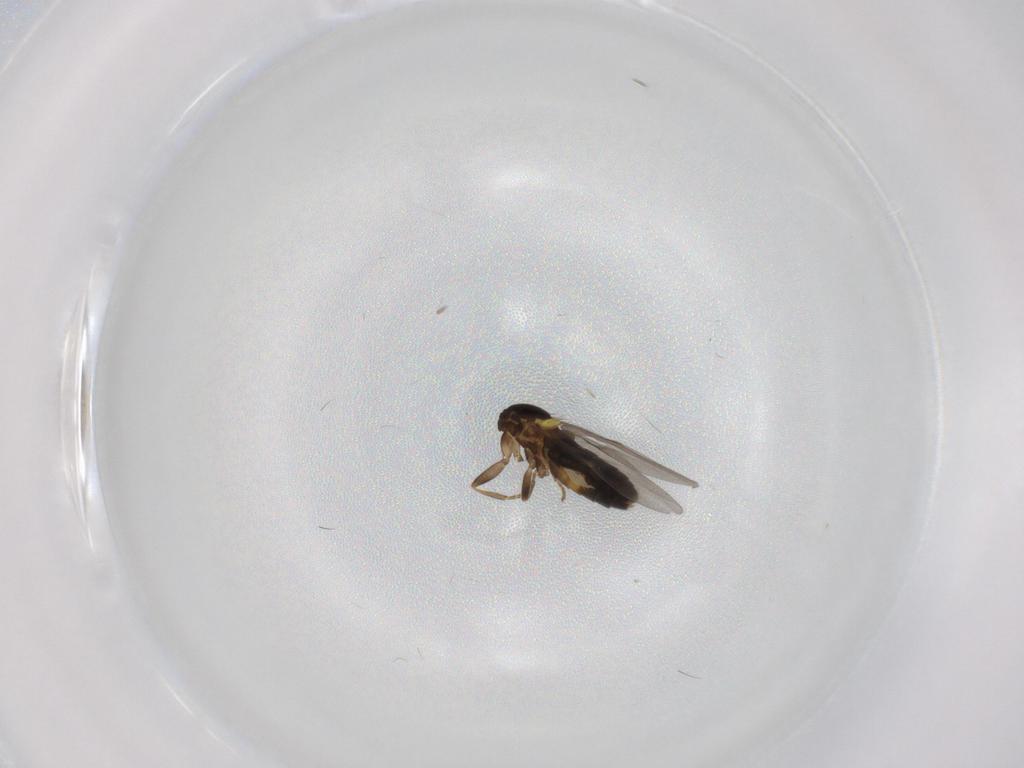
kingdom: Animalia
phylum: Arthropoda
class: Insecta
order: Diptera
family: Scatopsidae
